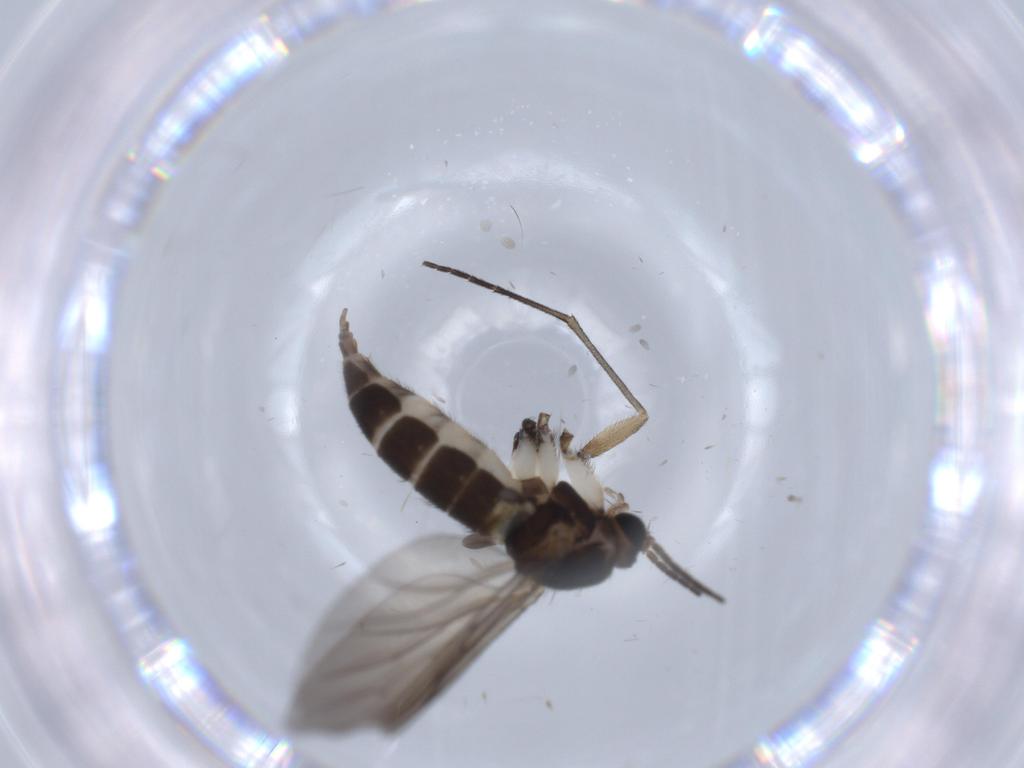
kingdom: Animalia
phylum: Arthropoda
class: Insecta
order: Diptera
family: Sciaridae
